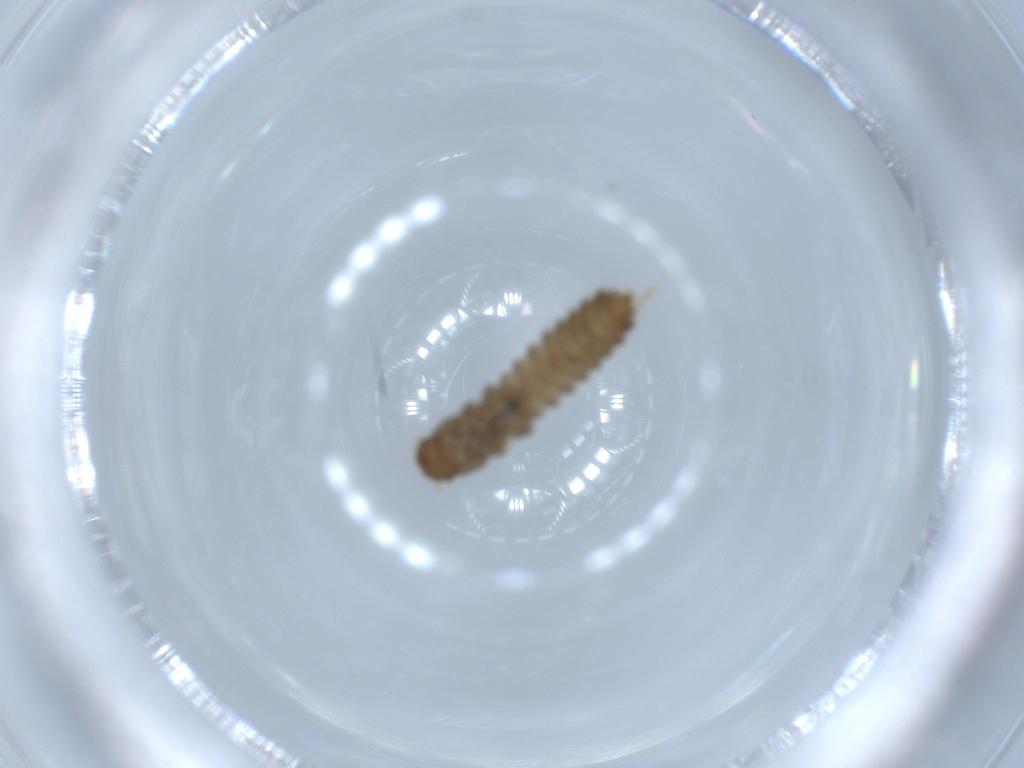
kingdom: Animalia
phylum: Arthropoda
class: Insecta
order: Coleoptera
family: Staphylinidae
